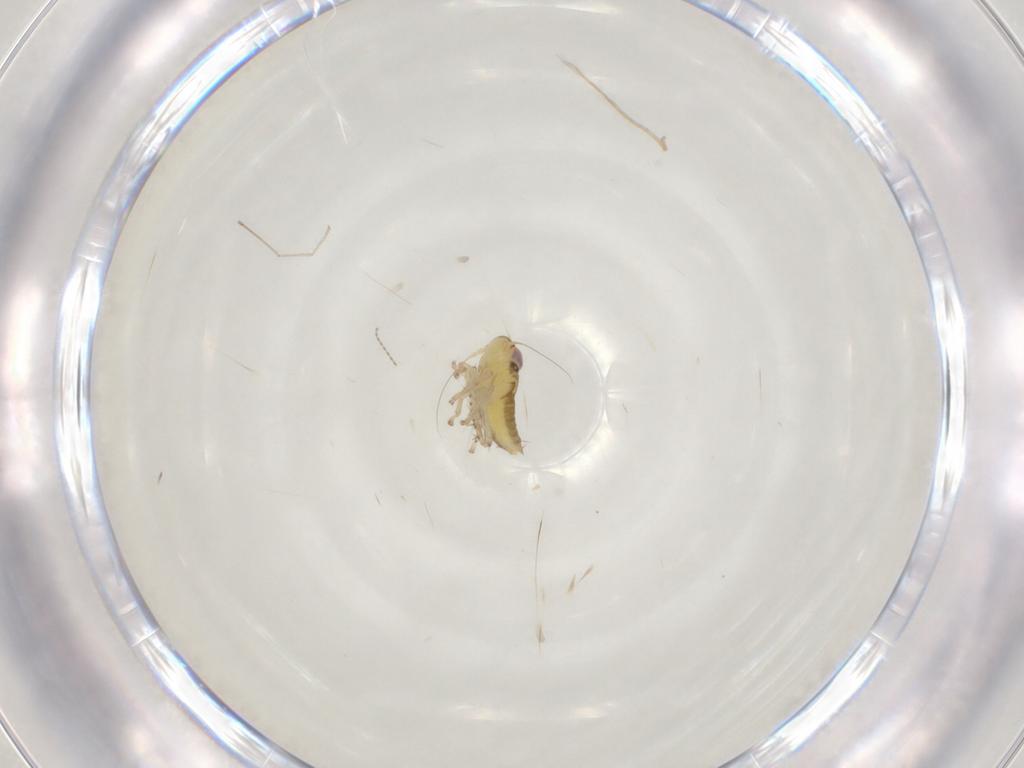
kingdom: Animalia
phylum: Arthropoda
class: Insecta
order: Hemiptera
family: Cicadellidae
